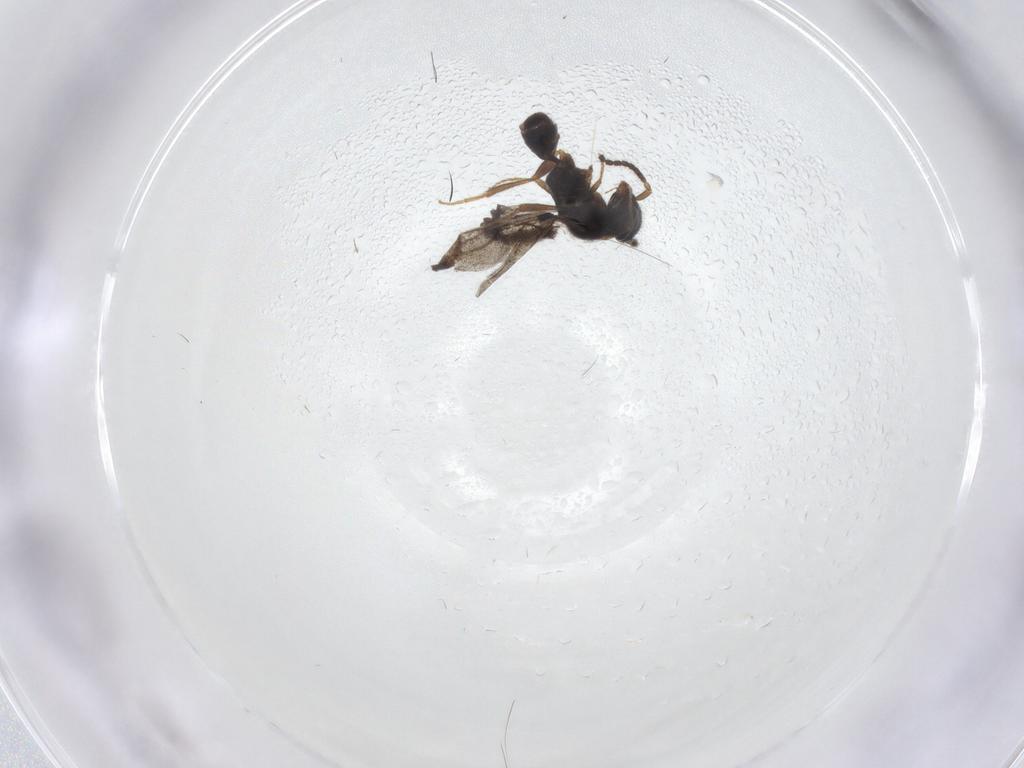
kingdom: Animalia
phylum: Arthropoda
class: Insecta
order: Hymenoptera
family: Bethylidae
